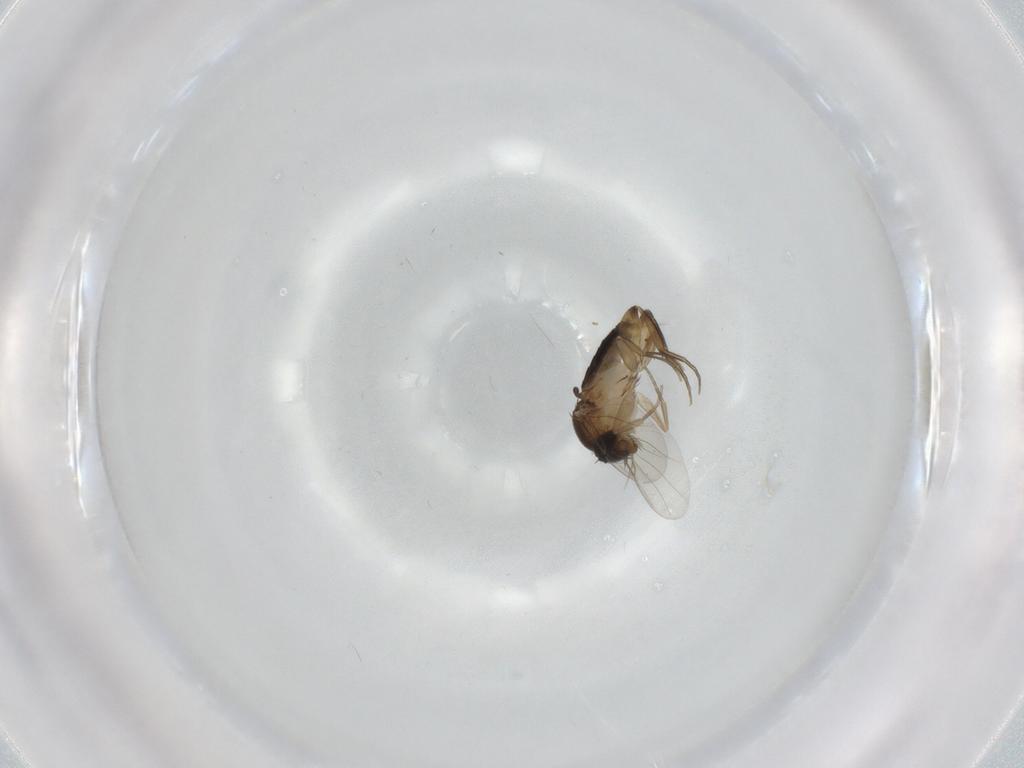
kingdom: Animalia
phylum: Arthropoda
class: Insecta
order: Diptera
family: Phoridae
